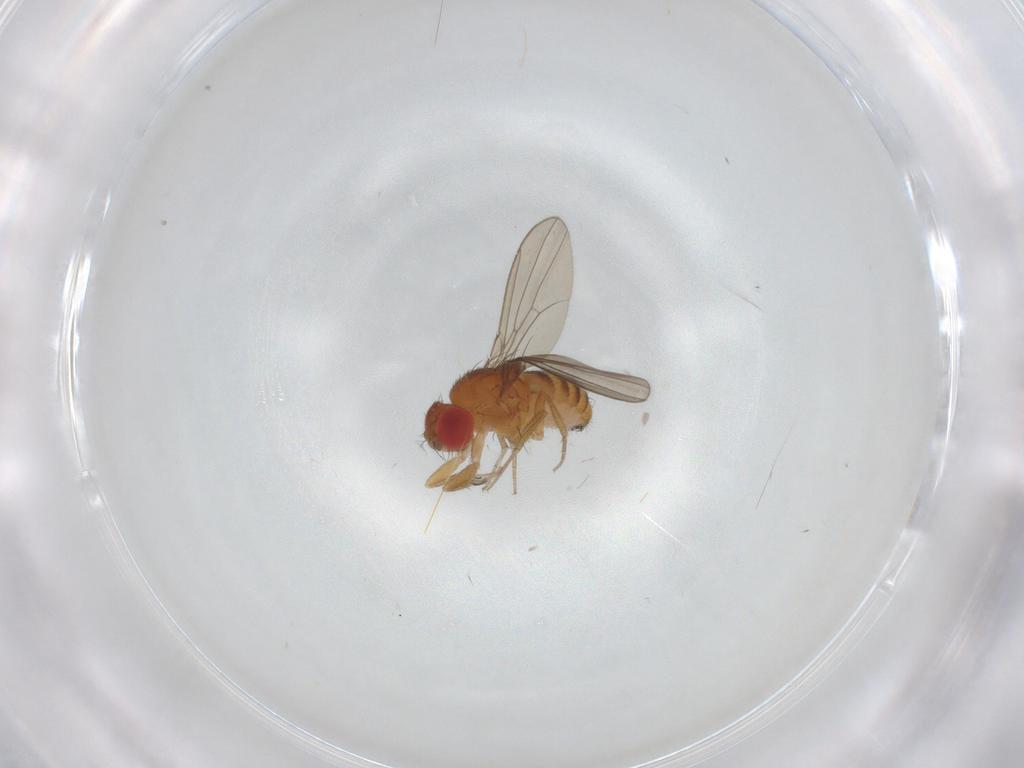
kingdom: Animalia
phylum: Arthropoda
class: Insecta
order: Diptera
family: Drosophilidae
